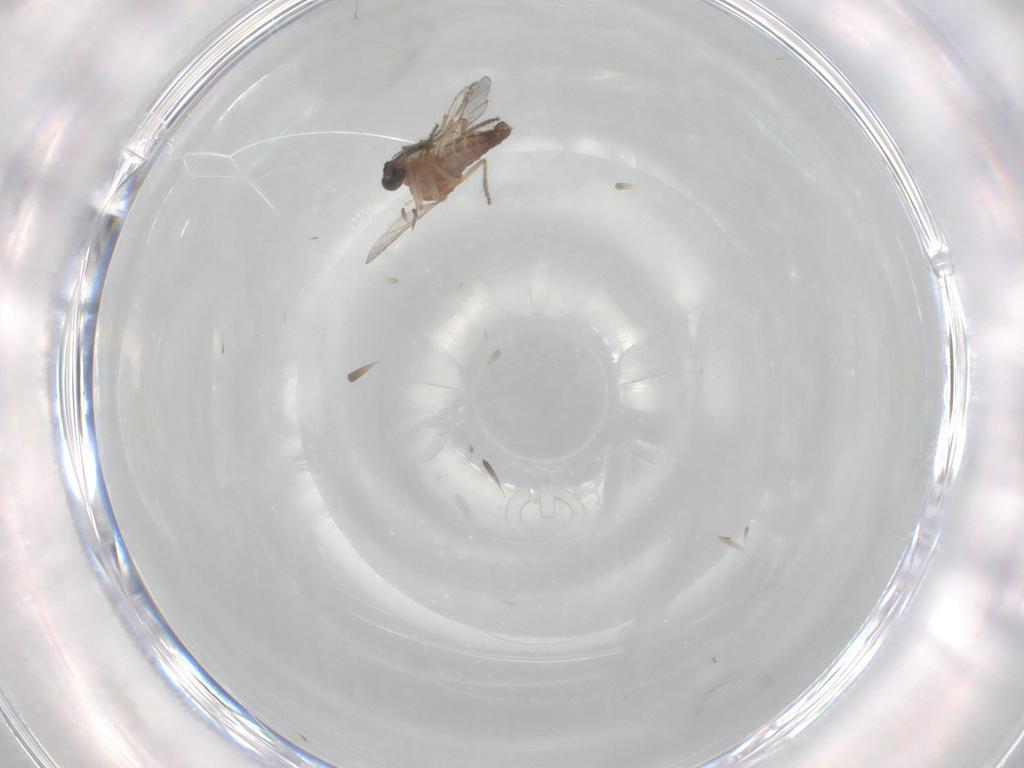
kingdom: Animalia
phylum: Arthropoda
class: Insecta
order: Diptera
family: Ceratopogonidae
